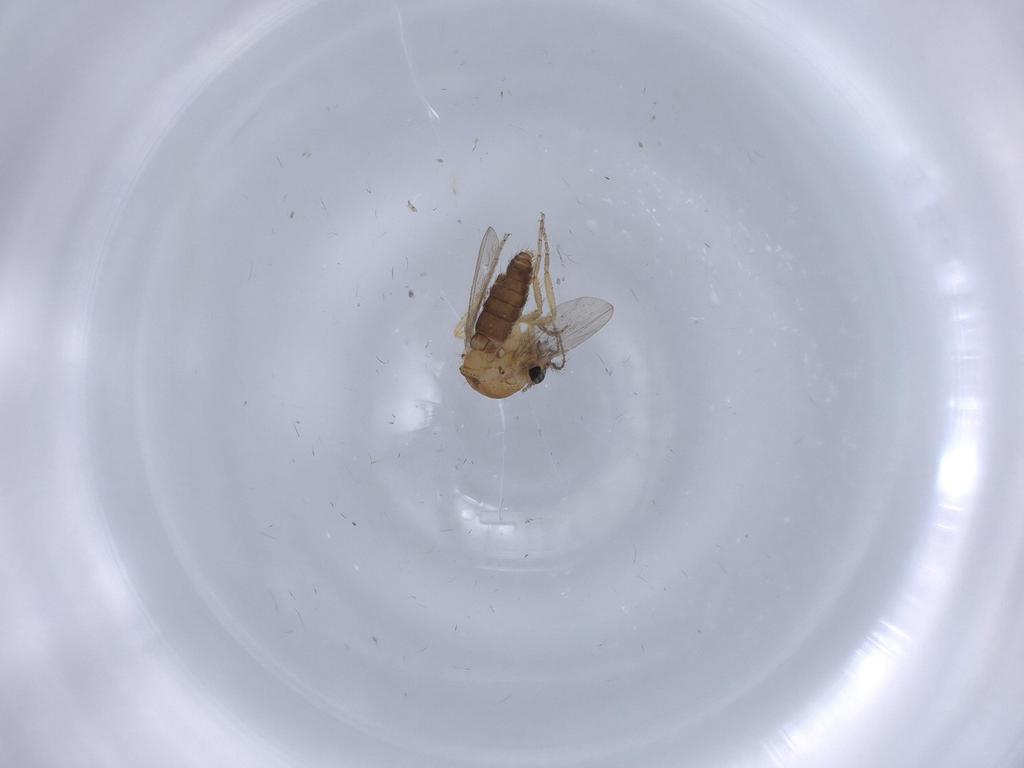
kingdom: Animalia
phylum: Arthropoda
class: Insecta
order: Diptera
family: Ceratopogonidae
